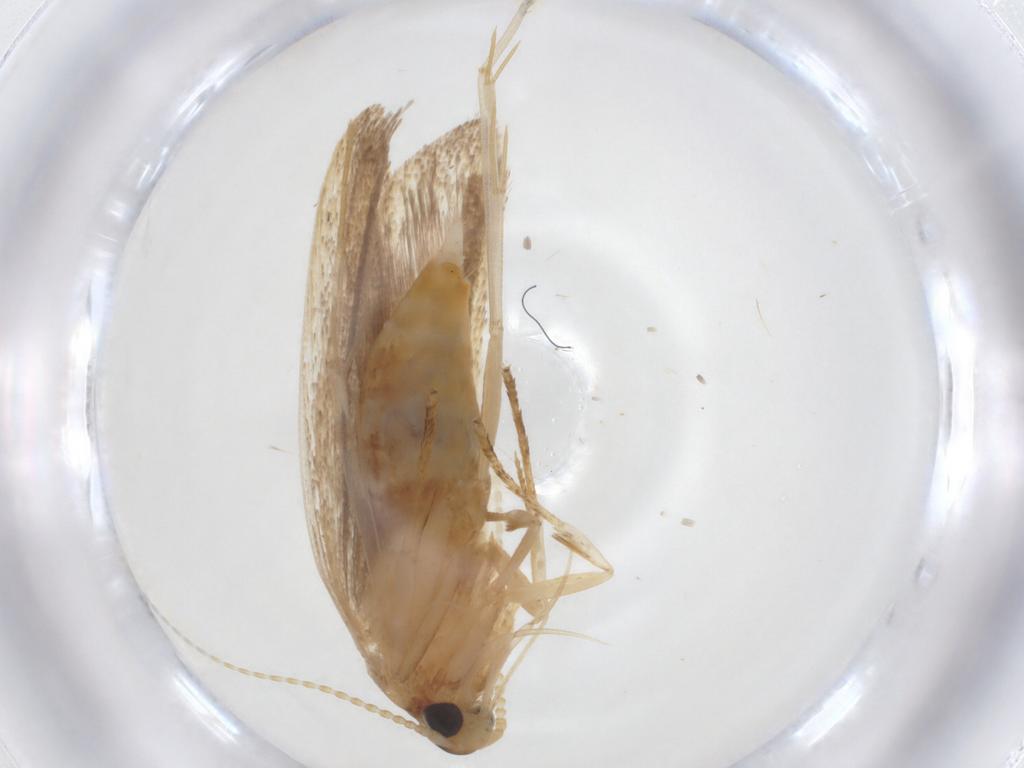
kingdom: Animalia
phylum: Arthropoda
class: Insecta
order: Lepidoptera
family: Lecithoceridae
